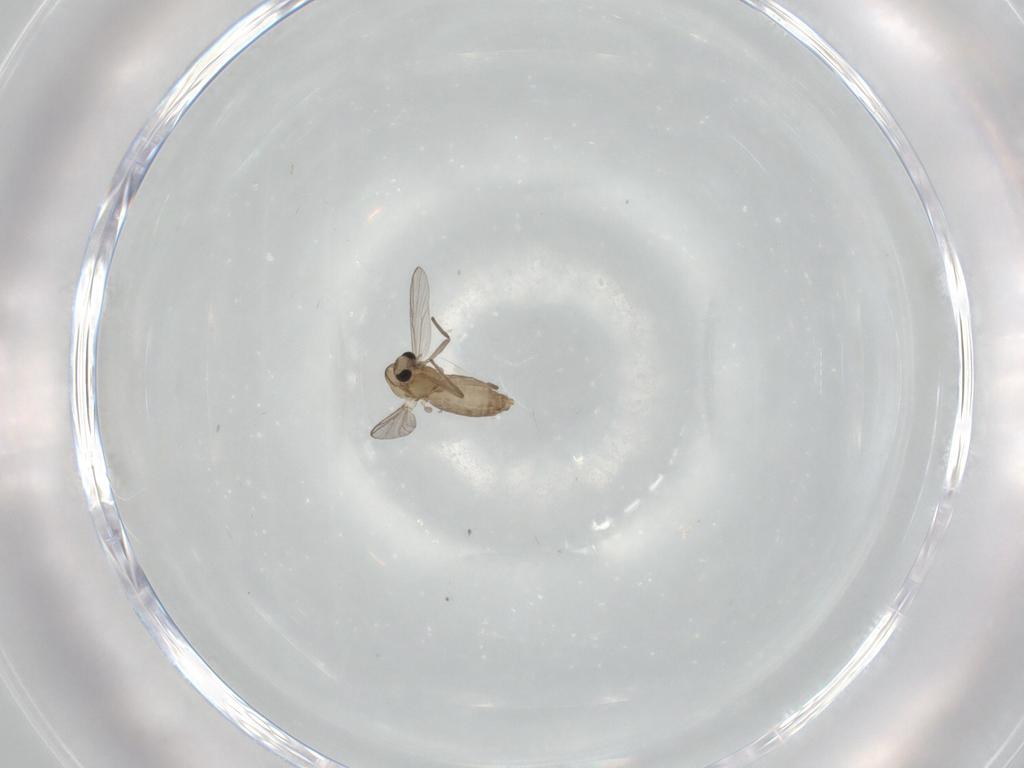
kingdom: Animalia
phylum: Arthropoda
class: Insecta
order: Diptera
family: Chironomidae
